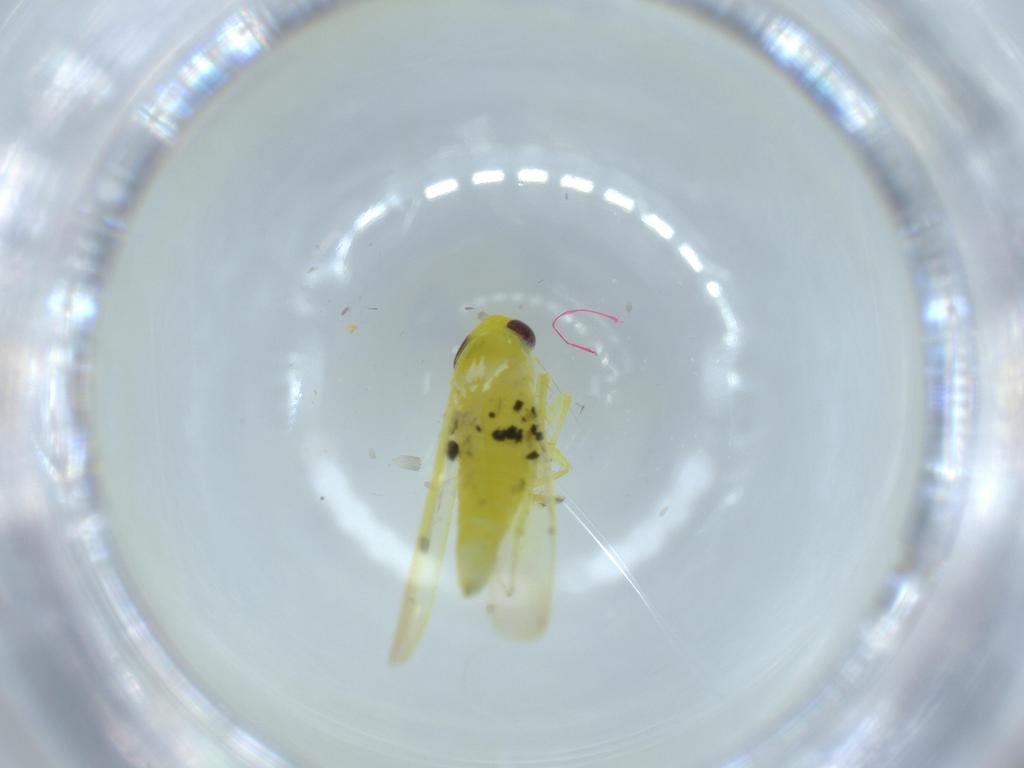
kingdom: Animalia
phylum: Arthropoda
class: Insecta
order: Hemiptera
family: Cicadellidae
